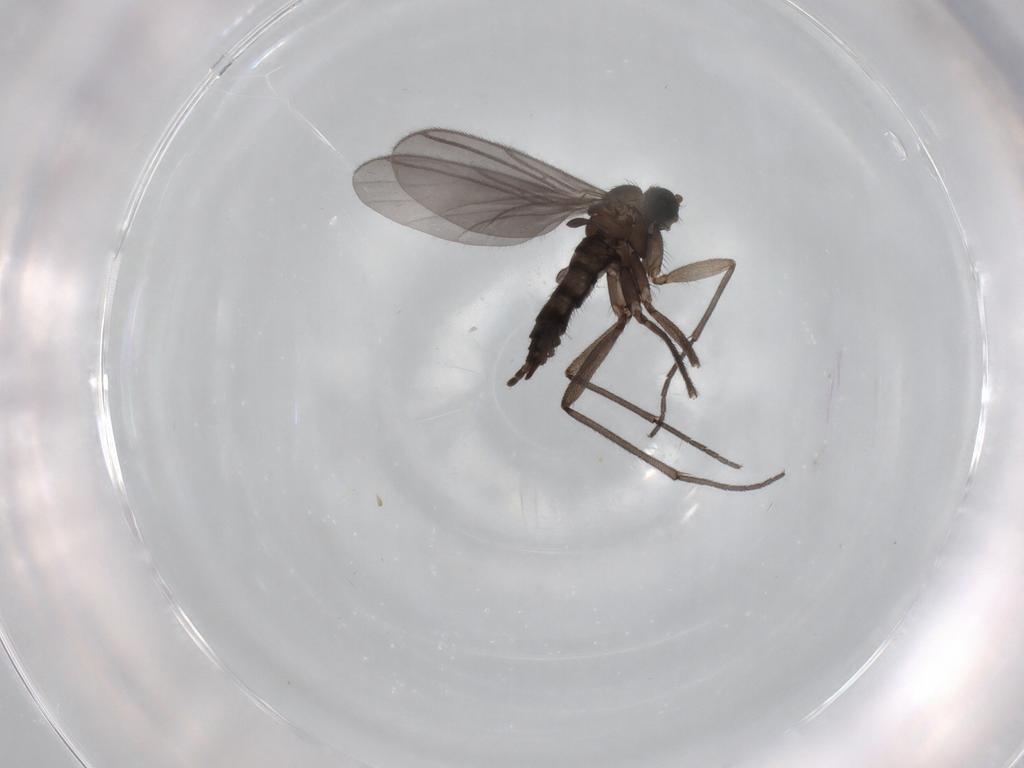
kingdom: Animalia
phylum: Arthropoda
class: Insecta
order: Diptera
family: Sciaridae
